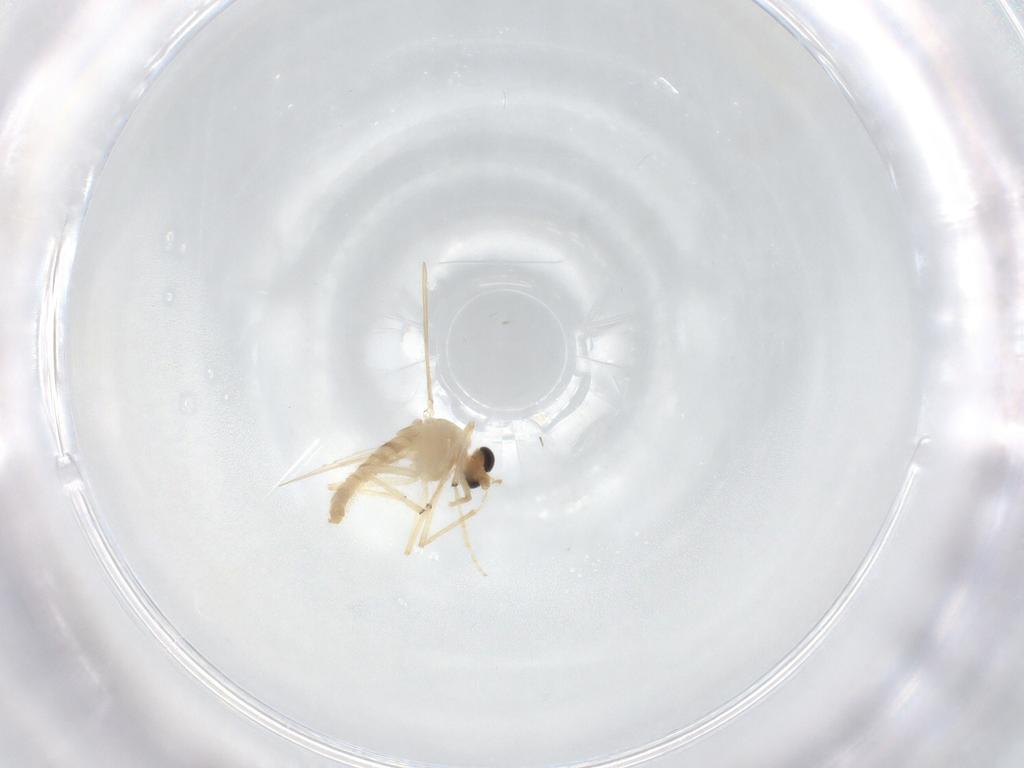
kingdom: Animalia
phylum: Arthropoda
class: Insecta
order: Diptera
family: Chironomidae
